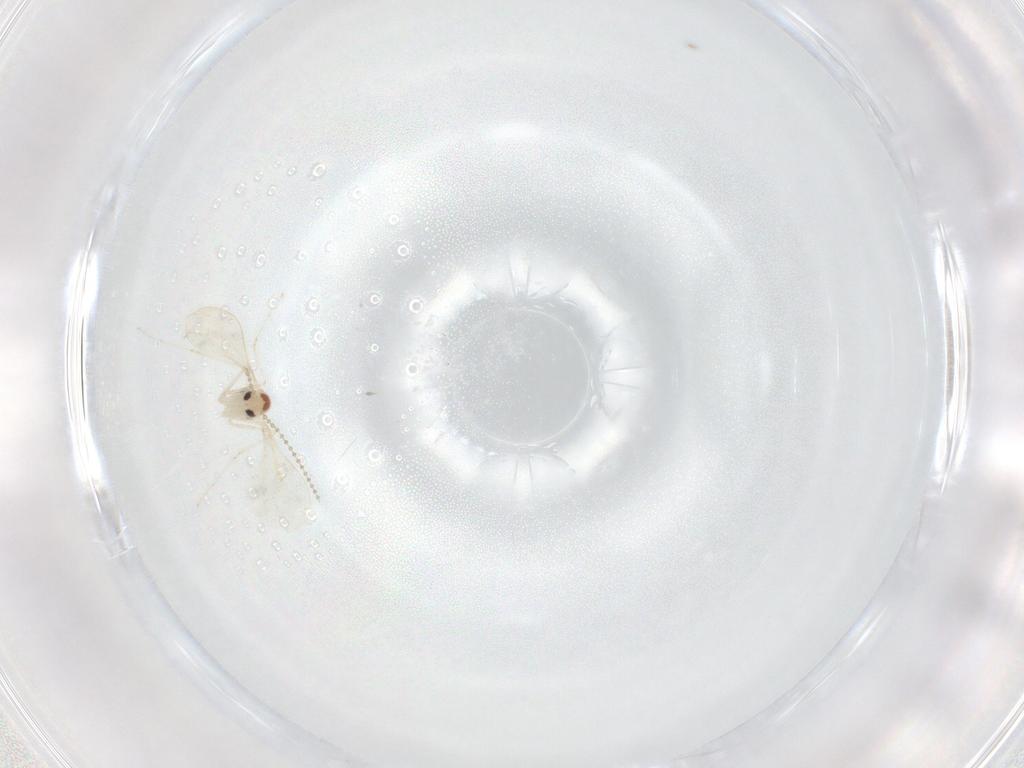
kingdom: Animalia
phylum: Arthropoda
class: Insecta
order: Diptera
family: Cecidomyiidae
